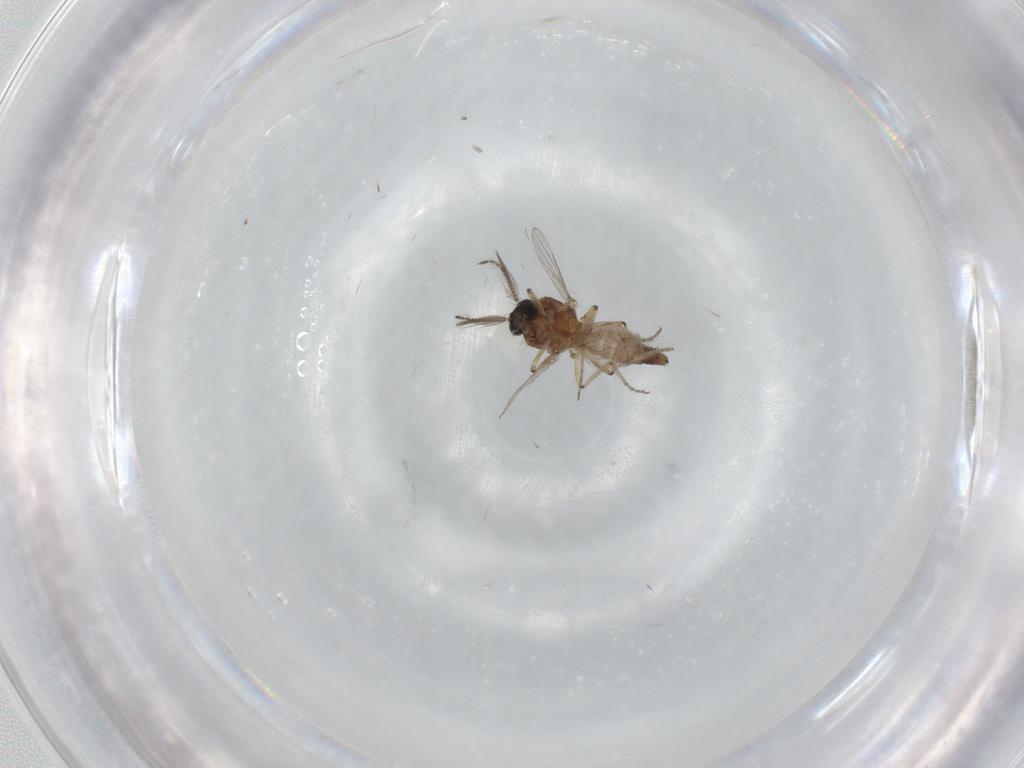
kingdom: Animalia
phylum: Arthropoda
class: Insecta
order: Diptera
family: Ceratopogonidae
